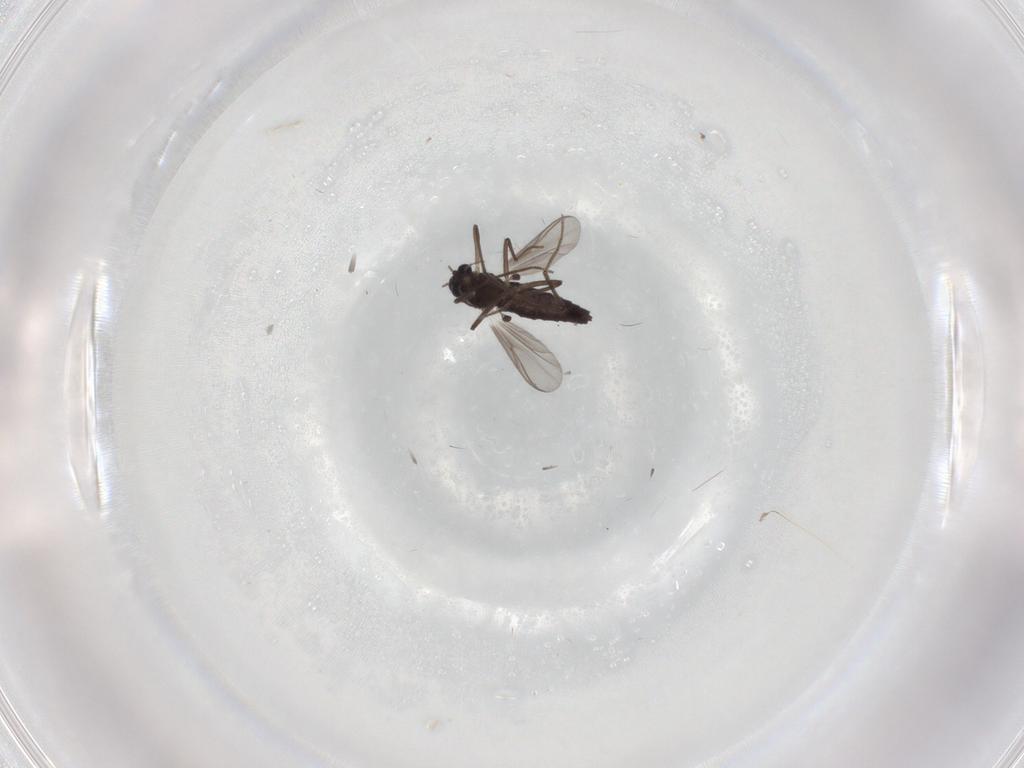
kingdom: Animalia
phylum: Arthropoda
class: Insecta
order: Diptera
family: Chironomidae
